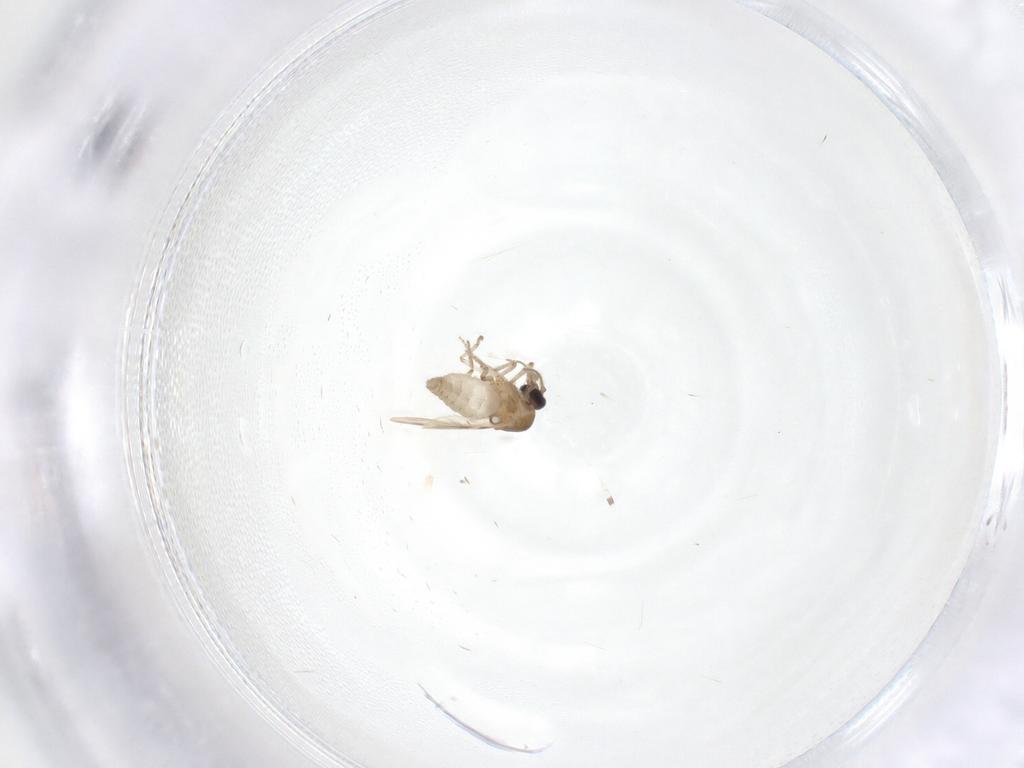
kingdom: Animalia
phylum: Arthropoda
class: Insecta
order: Diptera
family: Ceratopogonidae
